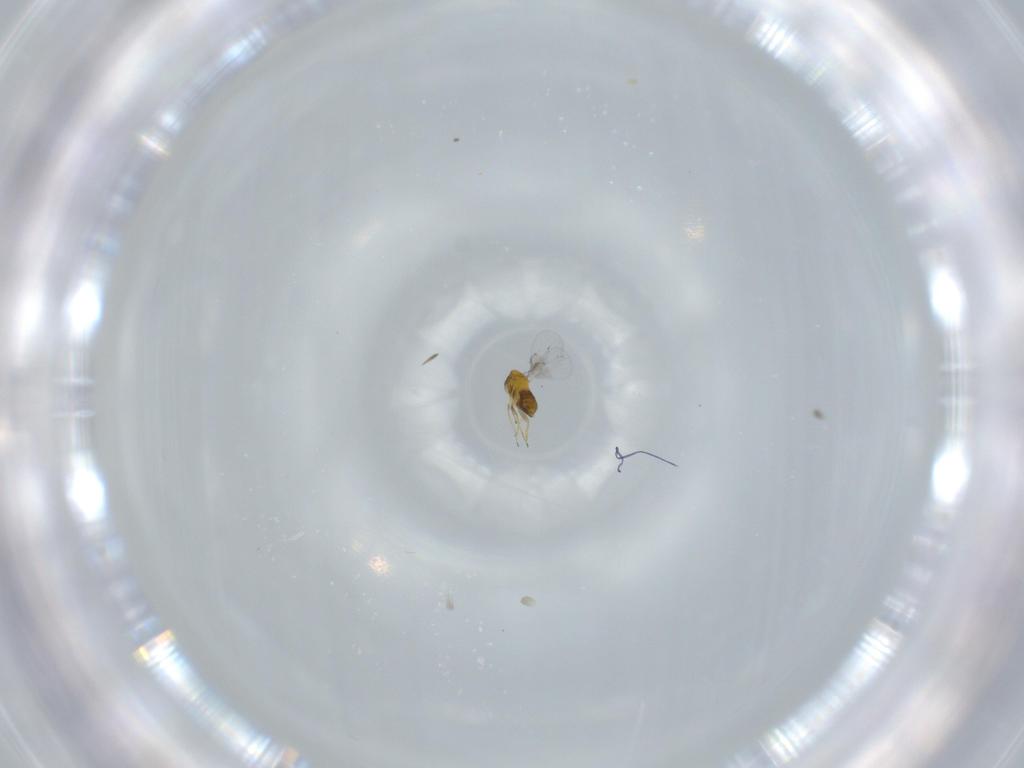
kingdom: Animalia
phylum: Arthropoda
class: Insecta
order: Hymenoptera
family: Trichogrammatidae
